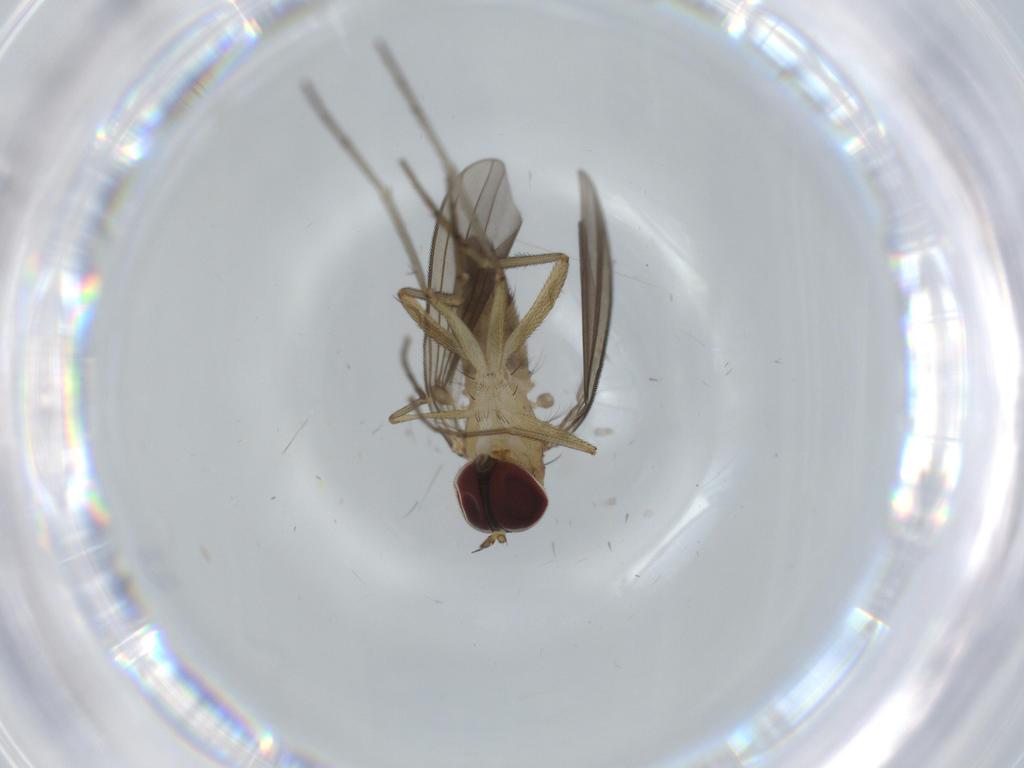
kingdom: Animalia
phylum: Arthropoda
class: Insecta
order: Diptera
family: Dolichopodidae
